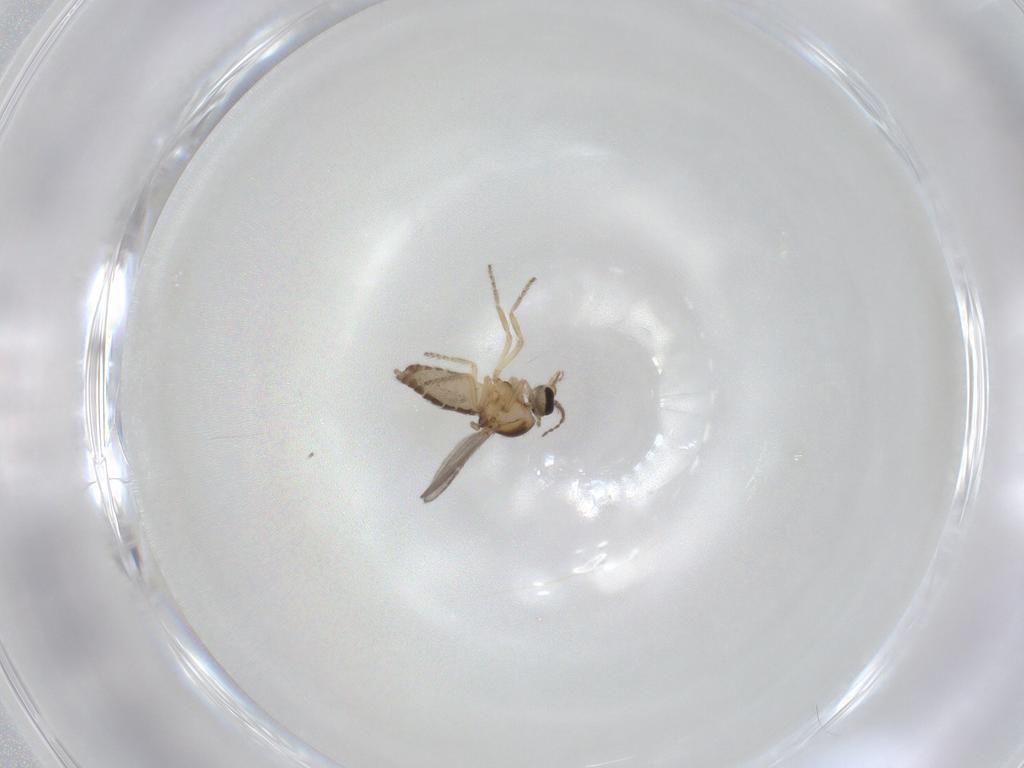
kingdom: Animalia
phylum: Arthropoda
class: Insecta
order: Diptera
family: Ceratopogonidae
